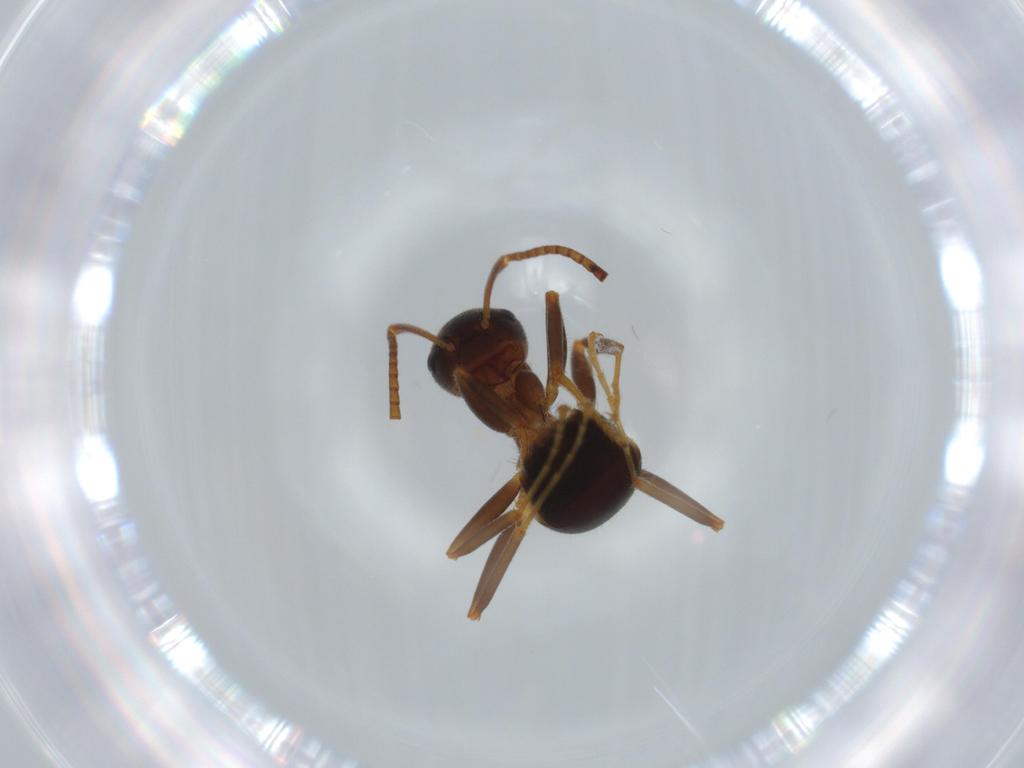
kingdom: Animalia
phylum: Arthropoda
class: Insecta
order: Hymenoptera
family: Formicidae
